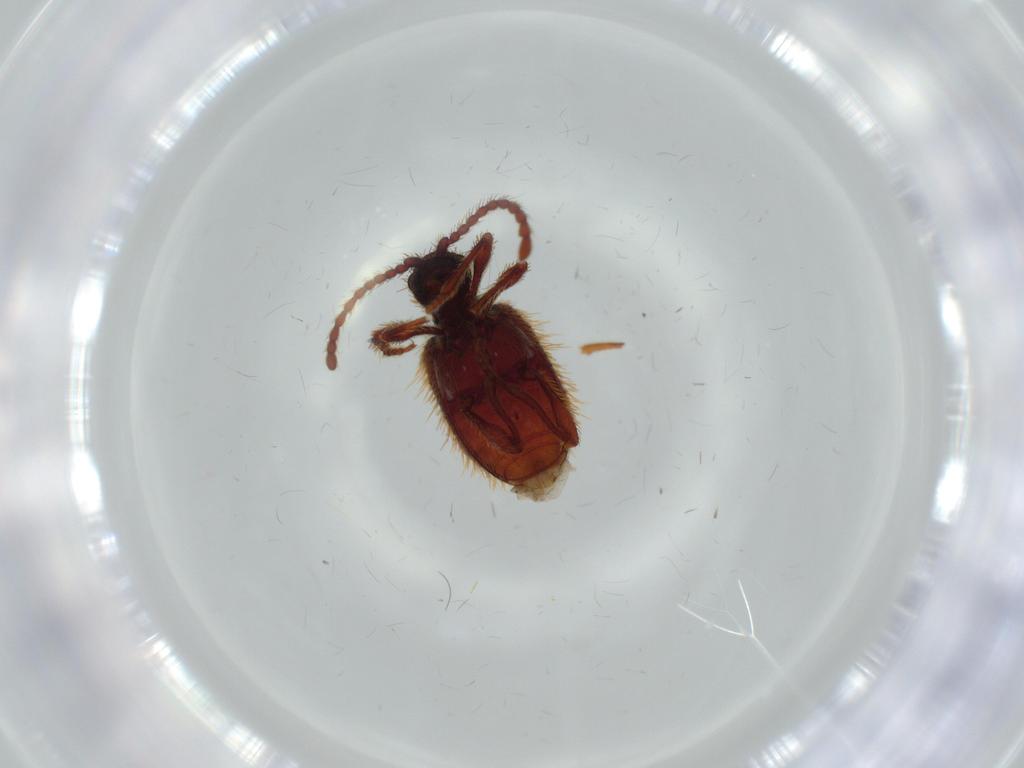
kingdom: Animalia
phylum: Arthropoda
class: Insecta
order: Coleoptera
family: Ptinidae
